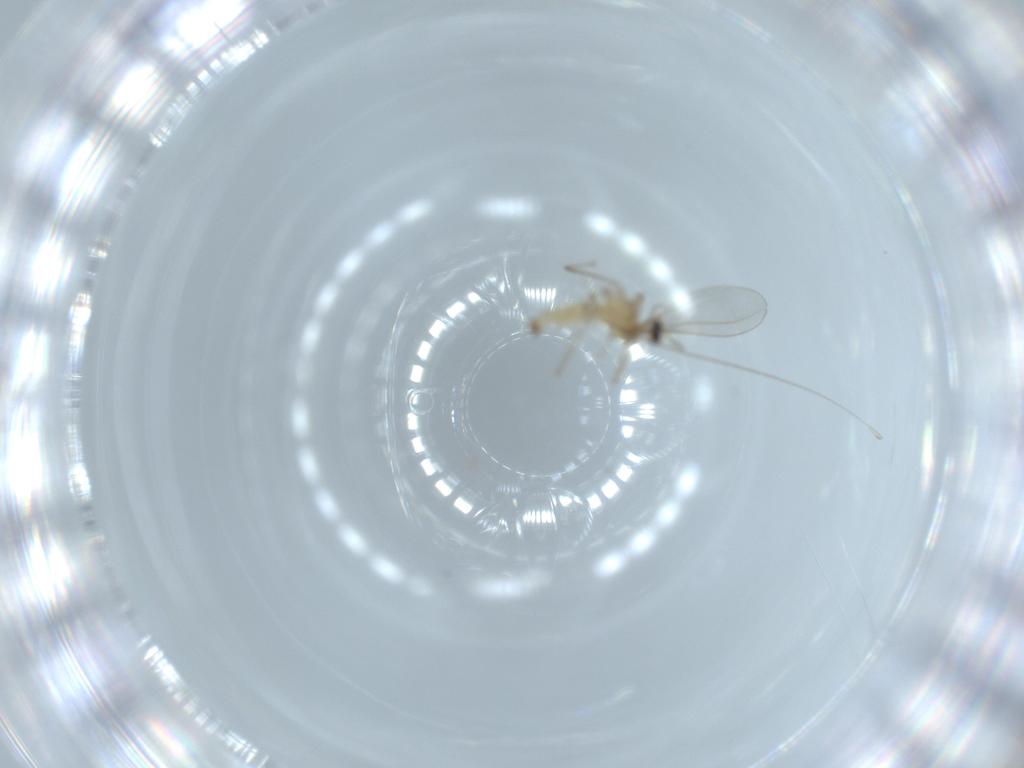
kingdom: Animalia
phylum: Arthropoda
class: Insecta
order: Diptera
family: Cecidomyiidae
